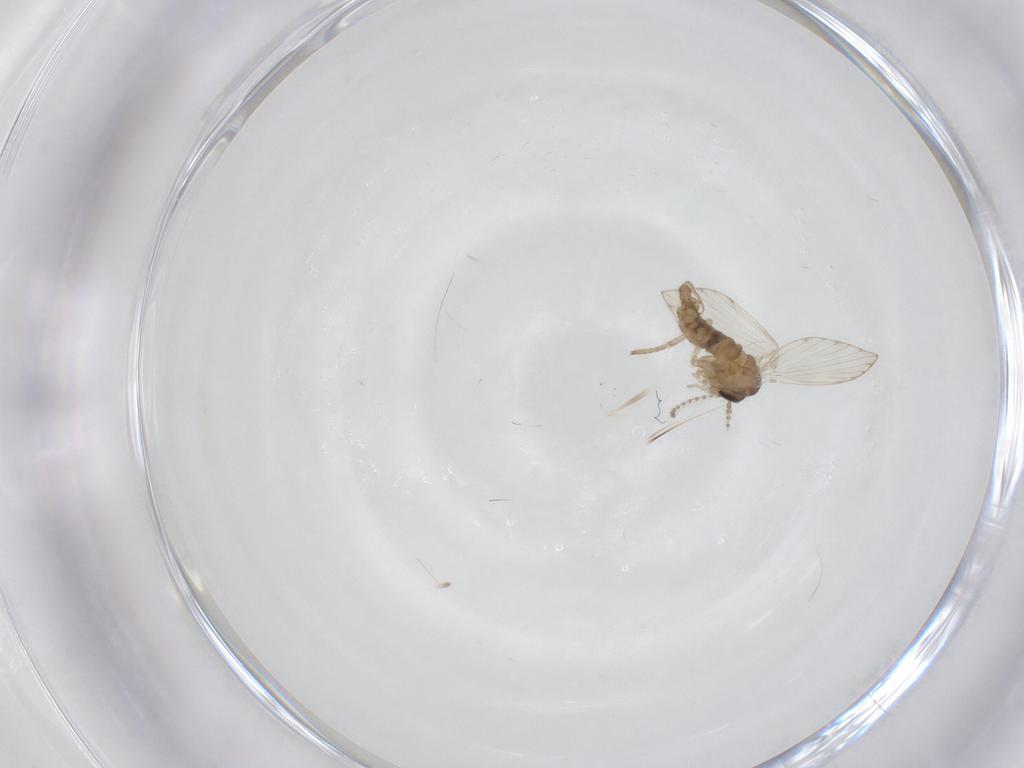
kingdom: Animalia
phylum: Arthropoda
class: Insecta
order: Diptera
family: Psychodidae
